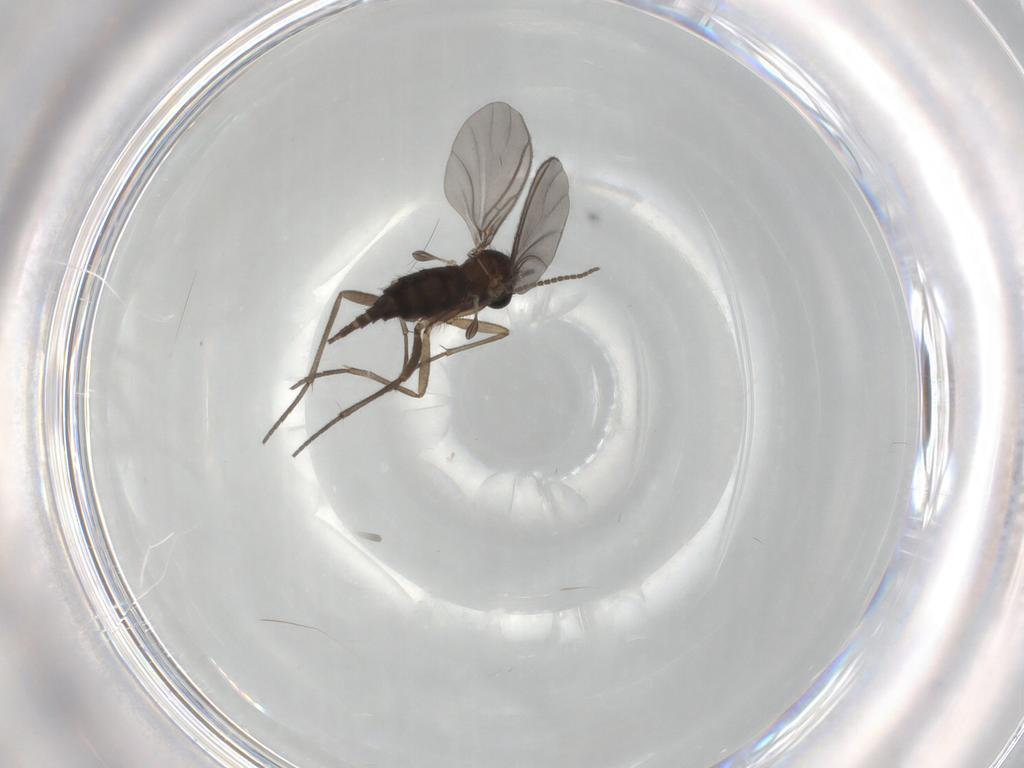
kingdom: Animalia
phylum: Arthropoda
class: Insecta
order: Diptera
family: Sciaridae
